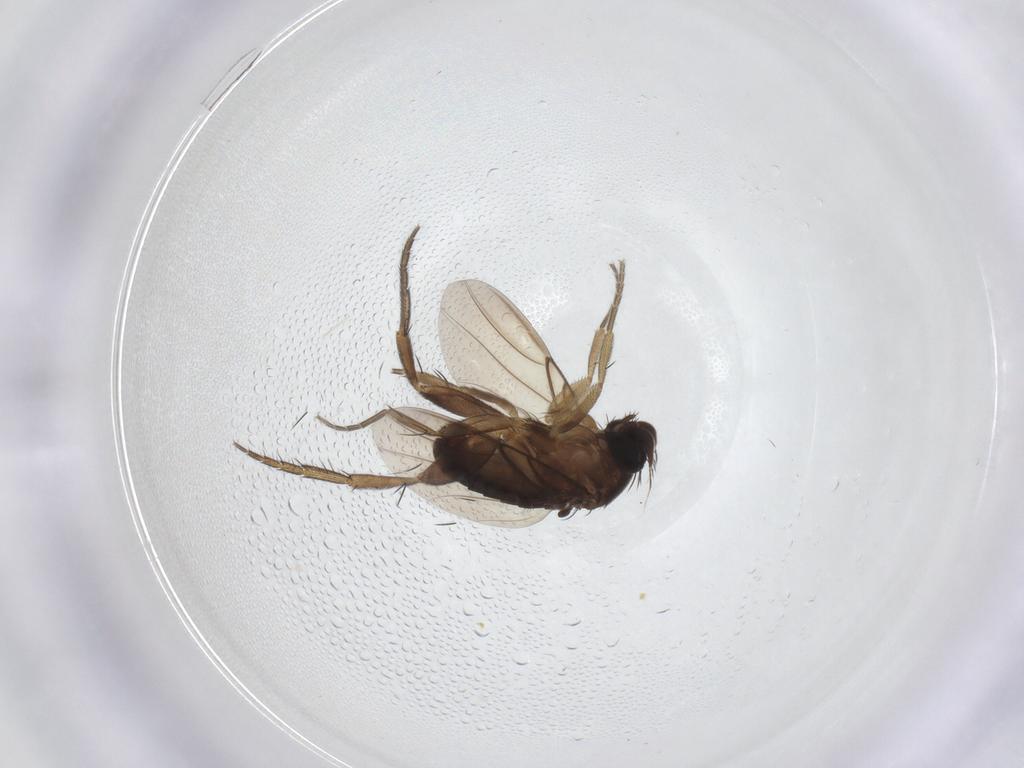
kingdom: Animalia
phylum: Arthropoda
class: Insecta
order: Diptera
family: Phoridae
